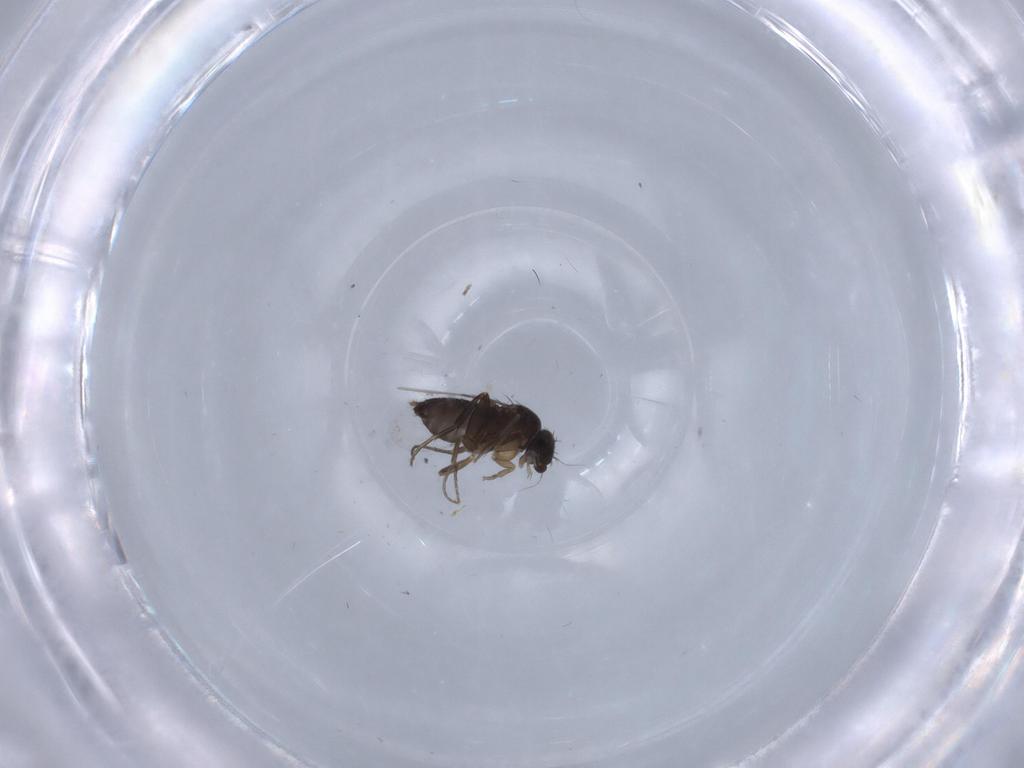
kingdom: Animalia
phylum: Arthropoda
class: Insecta
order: Diptera
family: Phoridae
